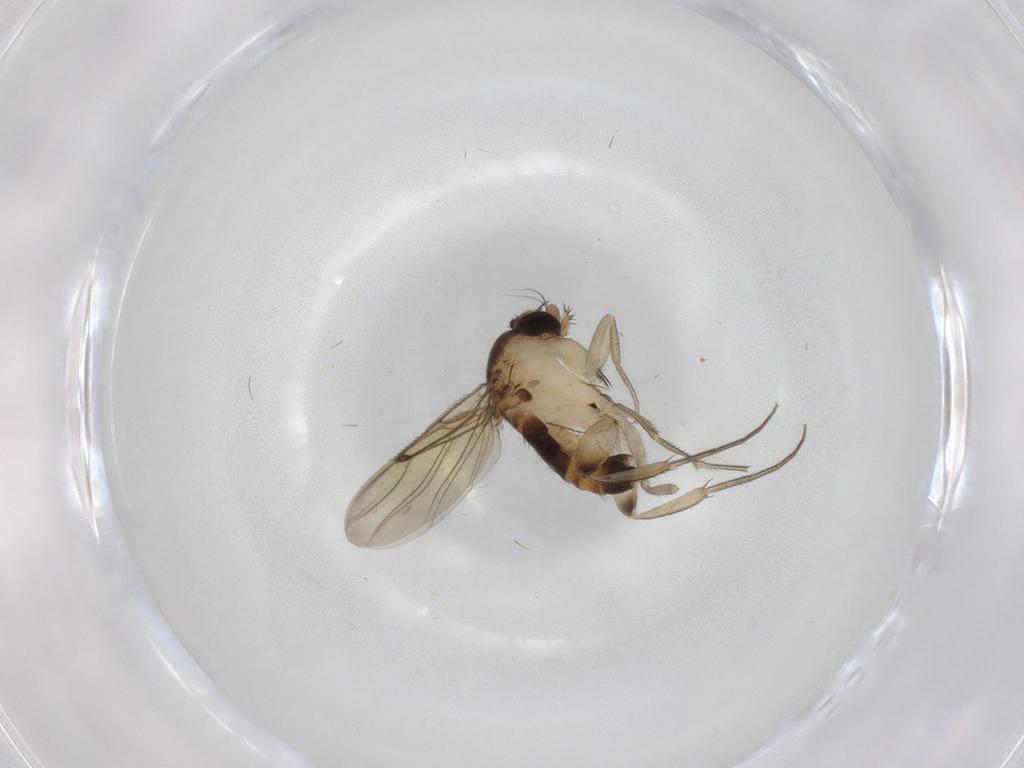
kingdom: Animalia
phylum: Arthropoda
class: Insecta
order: Diptera
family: Phoridae
